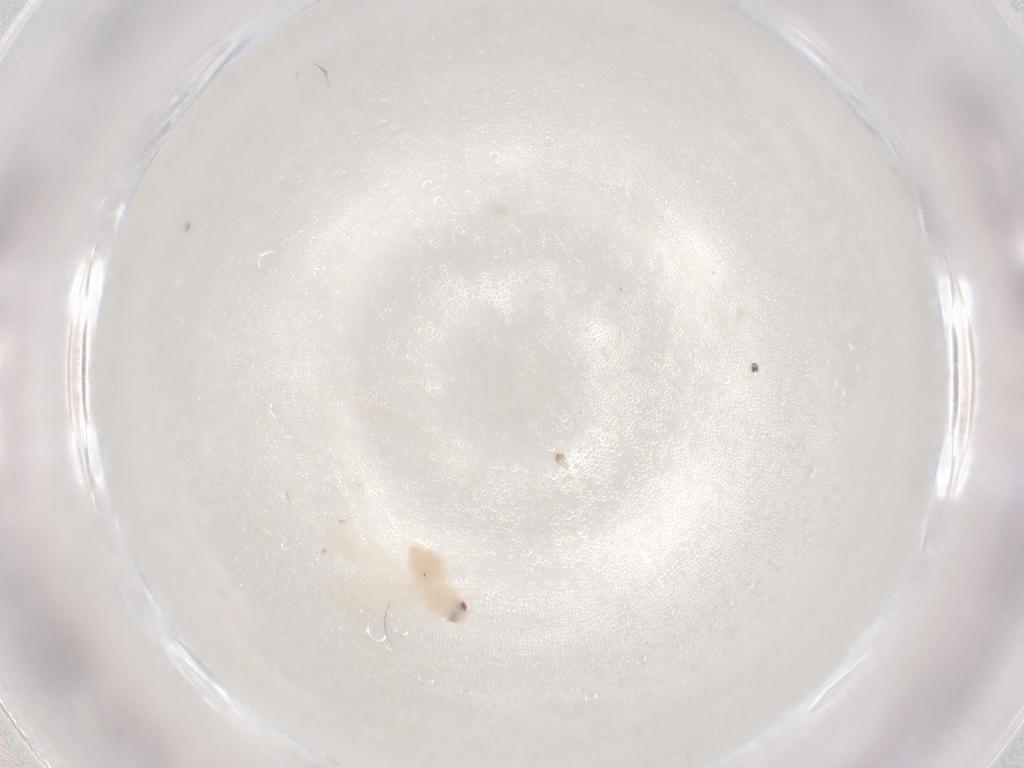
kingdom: Animalia
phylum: Arthropoda
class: Insecta
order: Hemiptera
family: Aleyrodidae
